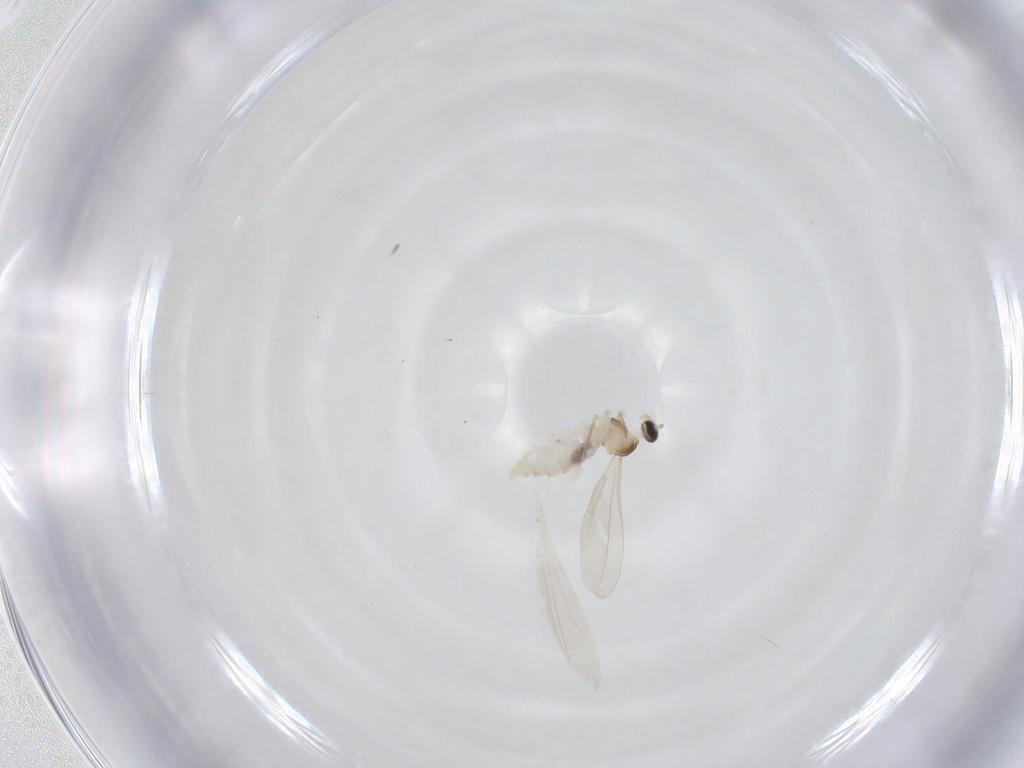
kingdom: Animalia
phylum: Arthropoda
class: Insecta
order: Diptera
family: Cecidomyiidae
